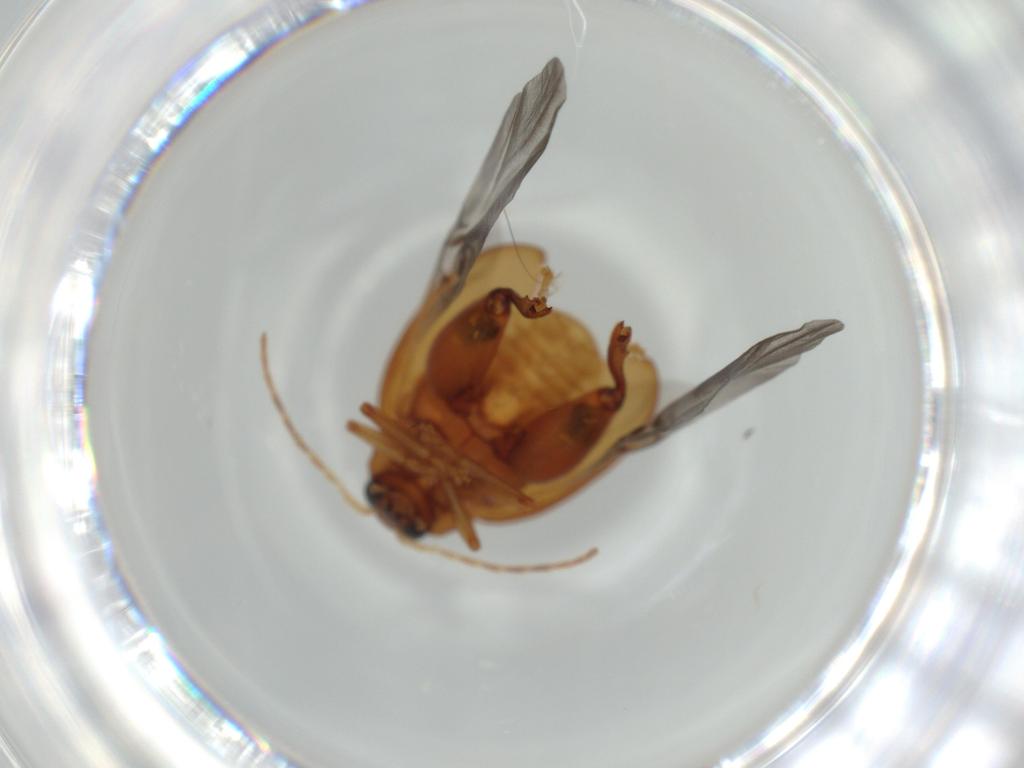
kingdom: Animalia
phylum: Arthropoda
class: Insecta
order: Coleoptera
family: Chrysomelidae
